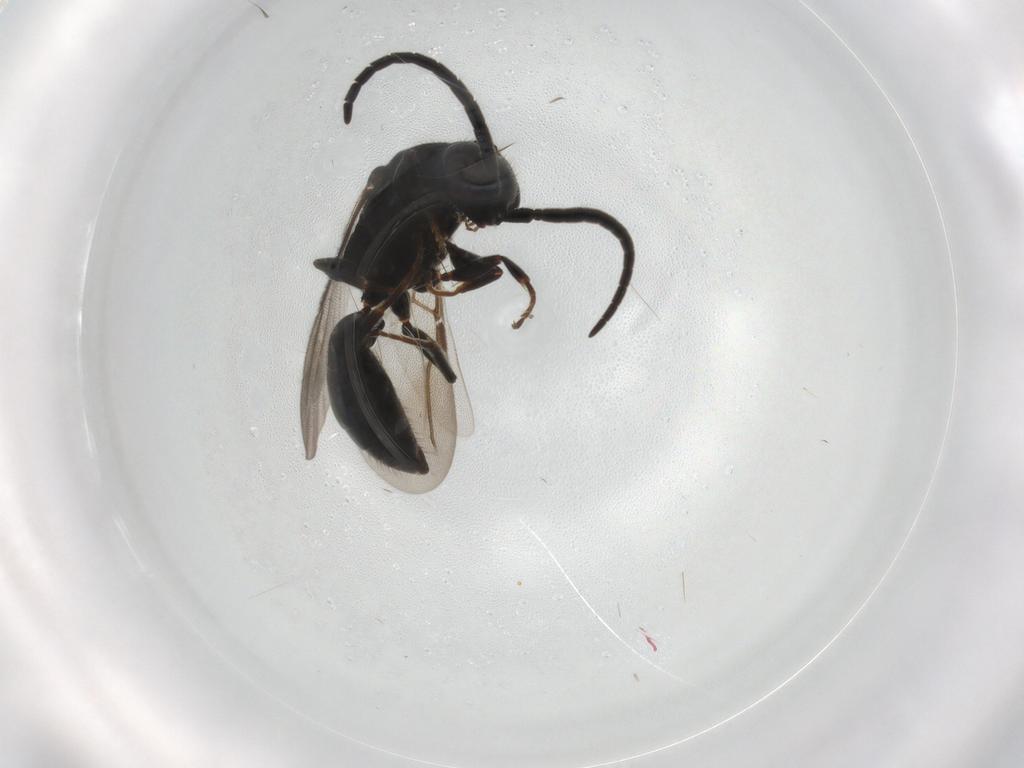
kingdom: Animalia
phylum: Arthropoda
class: Insecta
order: Hymenoptera
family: Bethylidae
